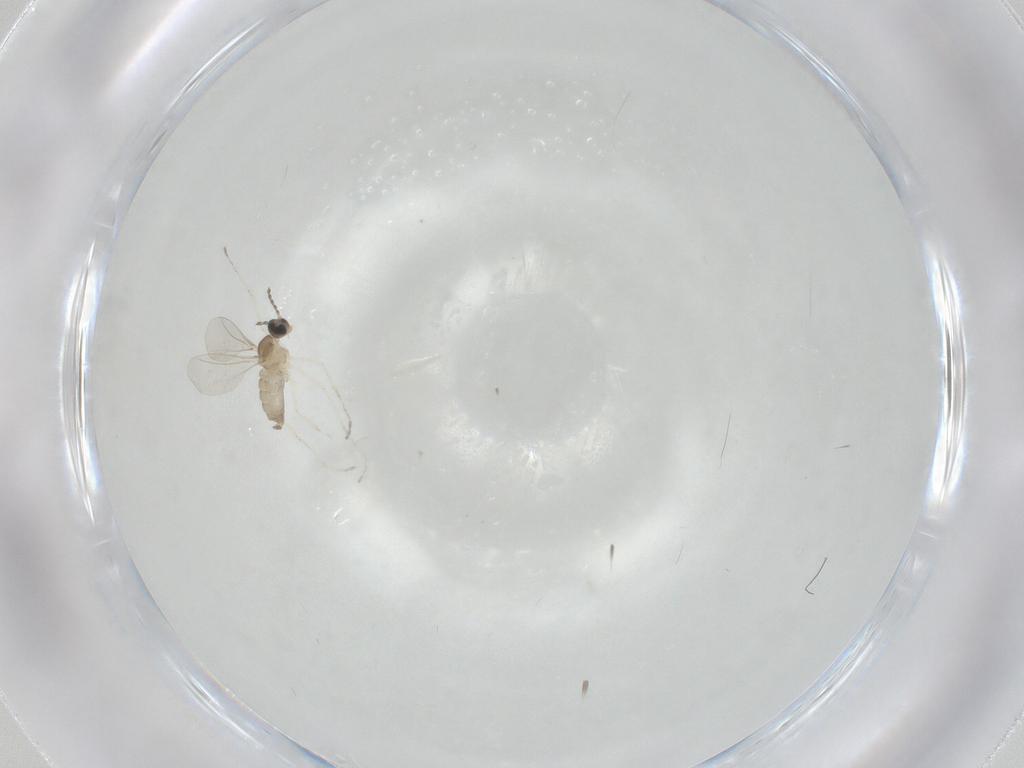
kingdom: Animalia
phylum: Arthropoda
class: Insecta
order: Diptera
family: Cecidomyiidae
